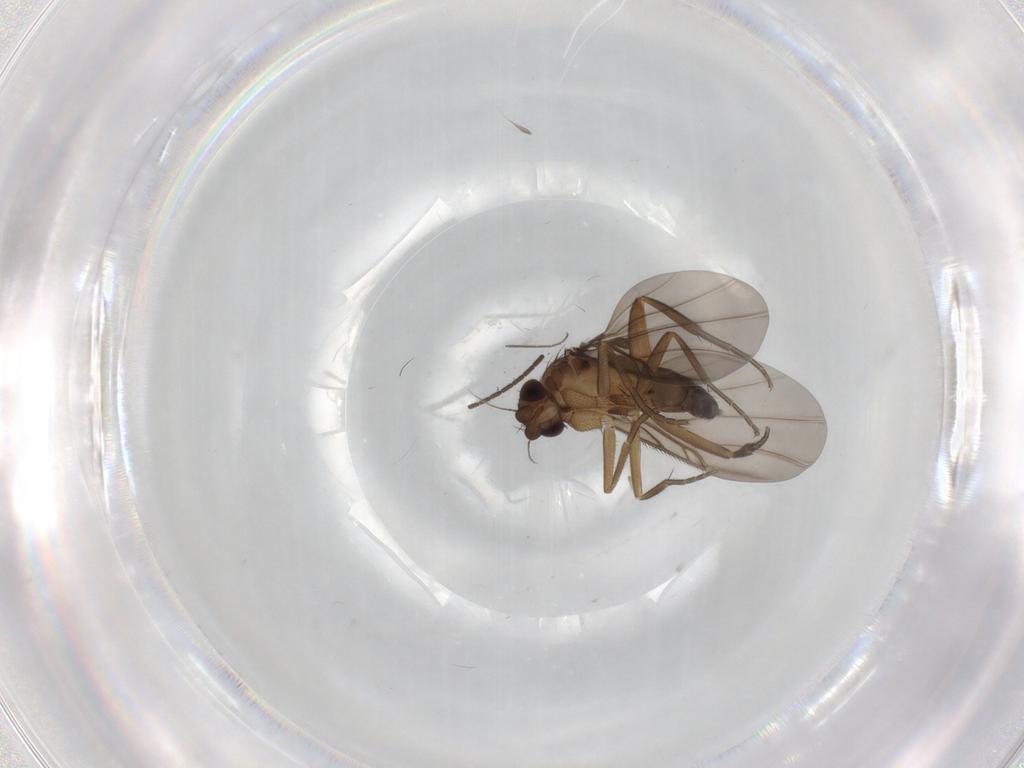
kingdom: Animalia
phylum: Arthropoda
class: Insecta
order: Diptera
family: Phoridae
